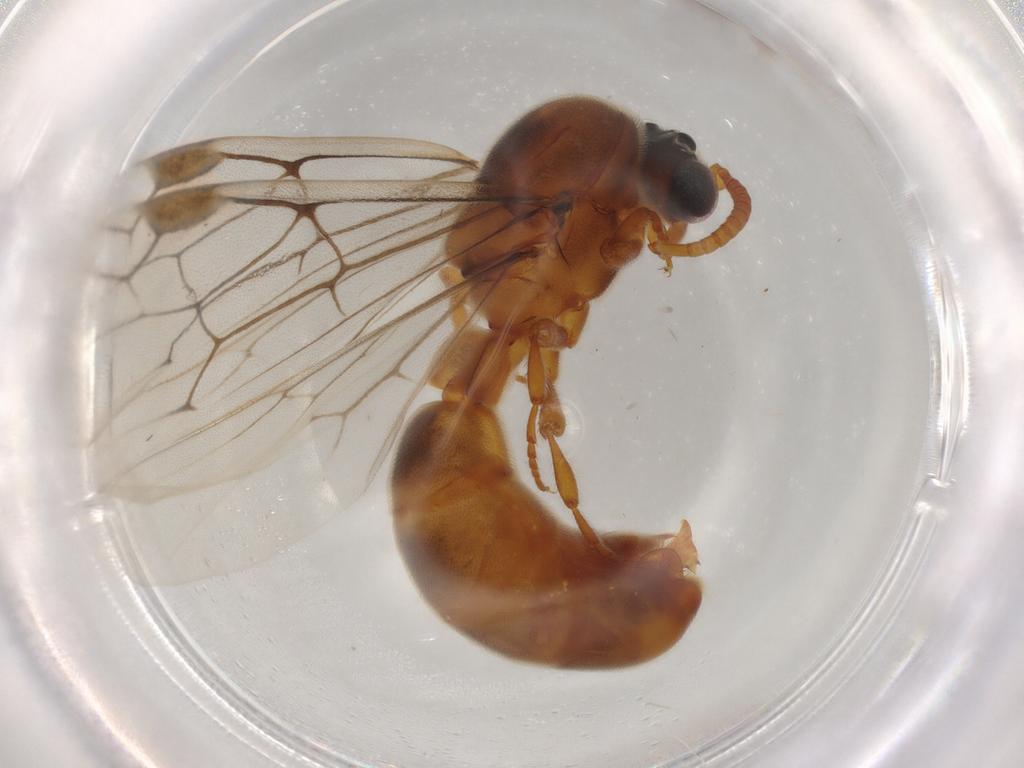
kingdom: Animalia
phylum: Arthropoda
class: Insecta
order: Hymenoptera
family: Formicidae
